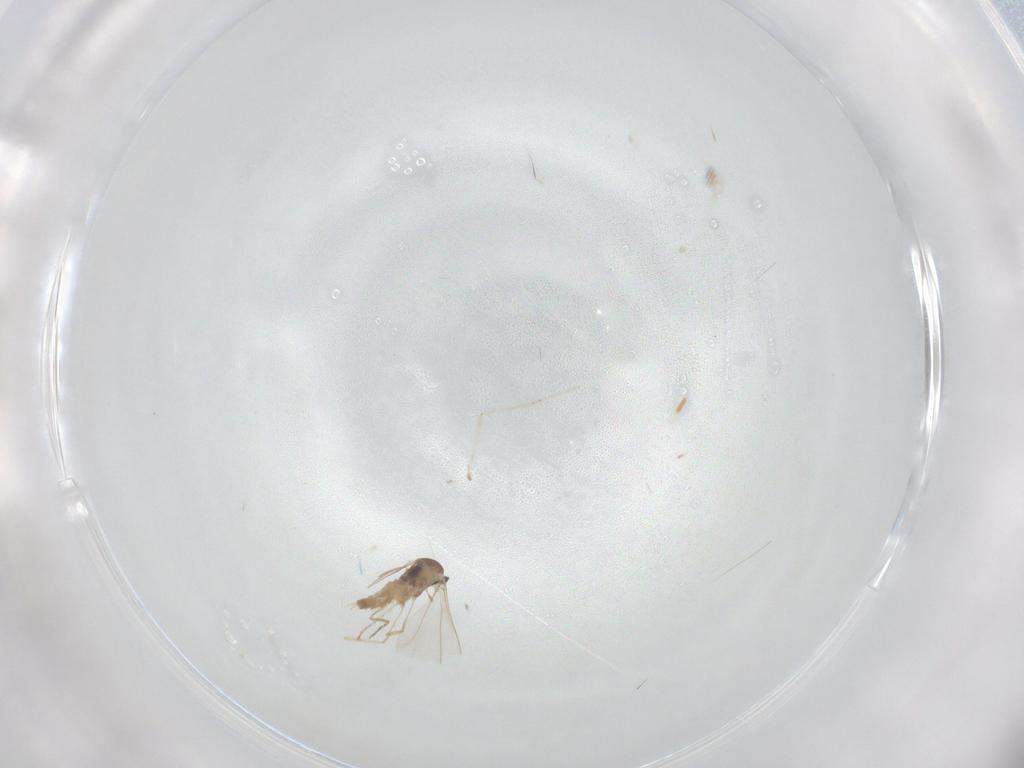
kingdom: Animalia
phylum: Arthropoda
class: Insecta
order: Diptera
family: Cecidomyiidae
